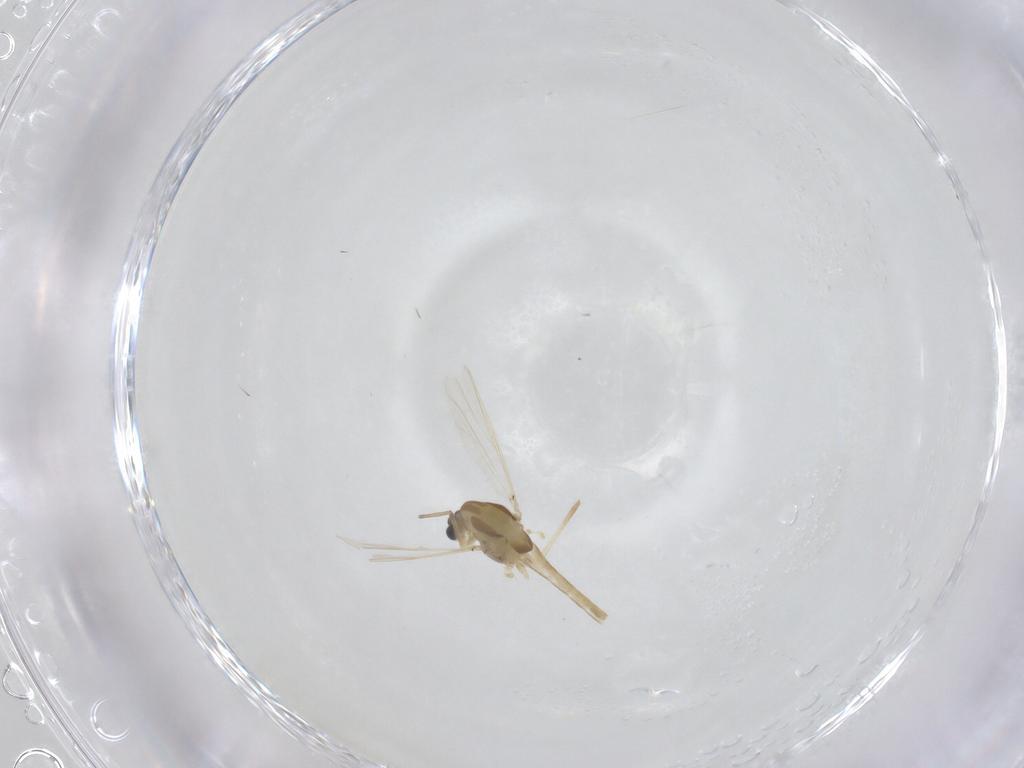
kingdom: Animalia
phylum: Arthropoda
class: Insecta
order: Diptera
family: Chironomidae
